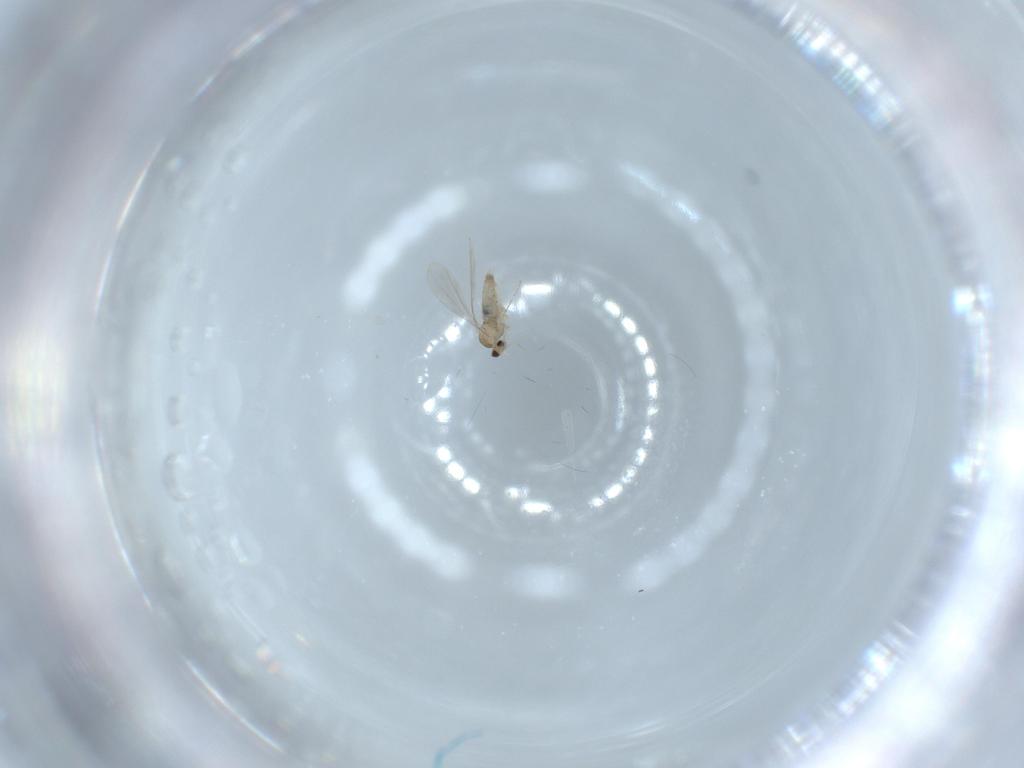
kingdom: Animalia
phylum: Arthropoda
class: Insecta
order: Diptera
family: Cecidomyiidae
